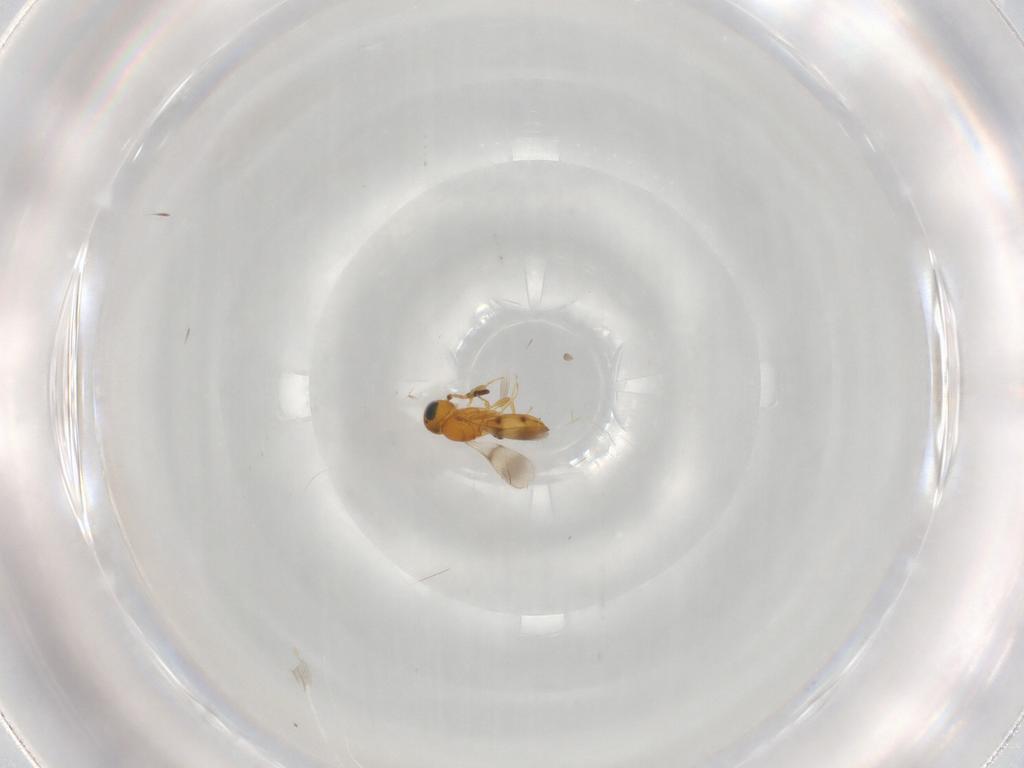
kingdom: Animalia
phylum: Arthropoda
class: Insecta
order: Hymenoptera
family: Scelionidae
